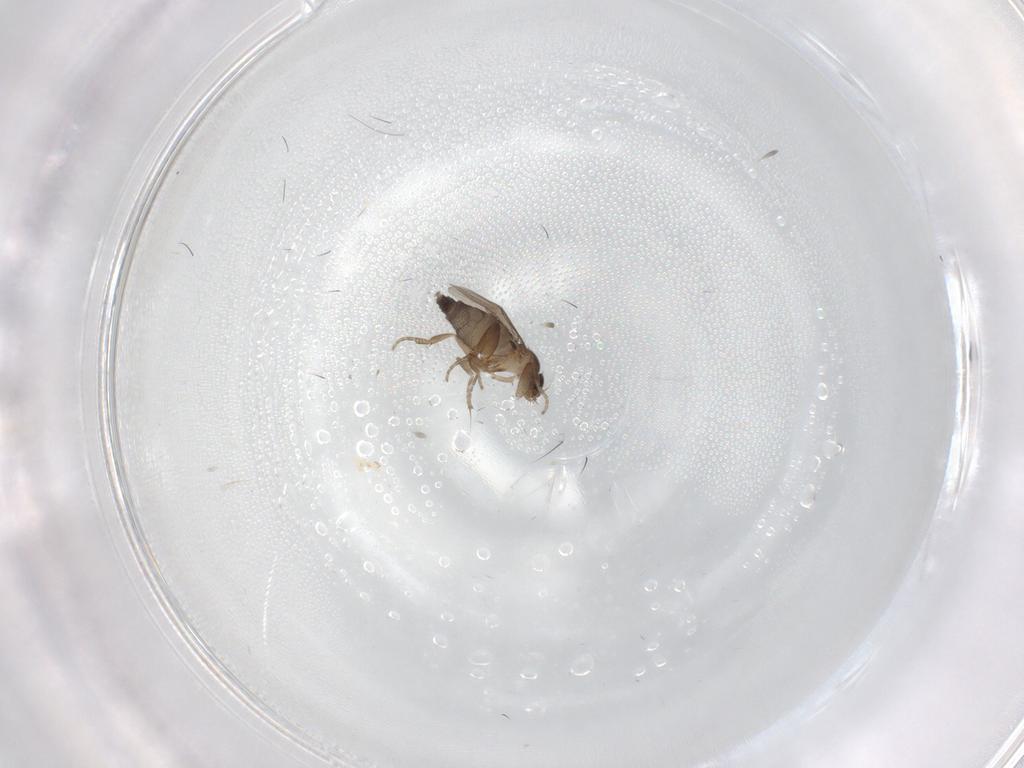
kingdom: Animalia
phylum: Arthropoda
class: Insecta
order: Diptera
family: Phoridae
